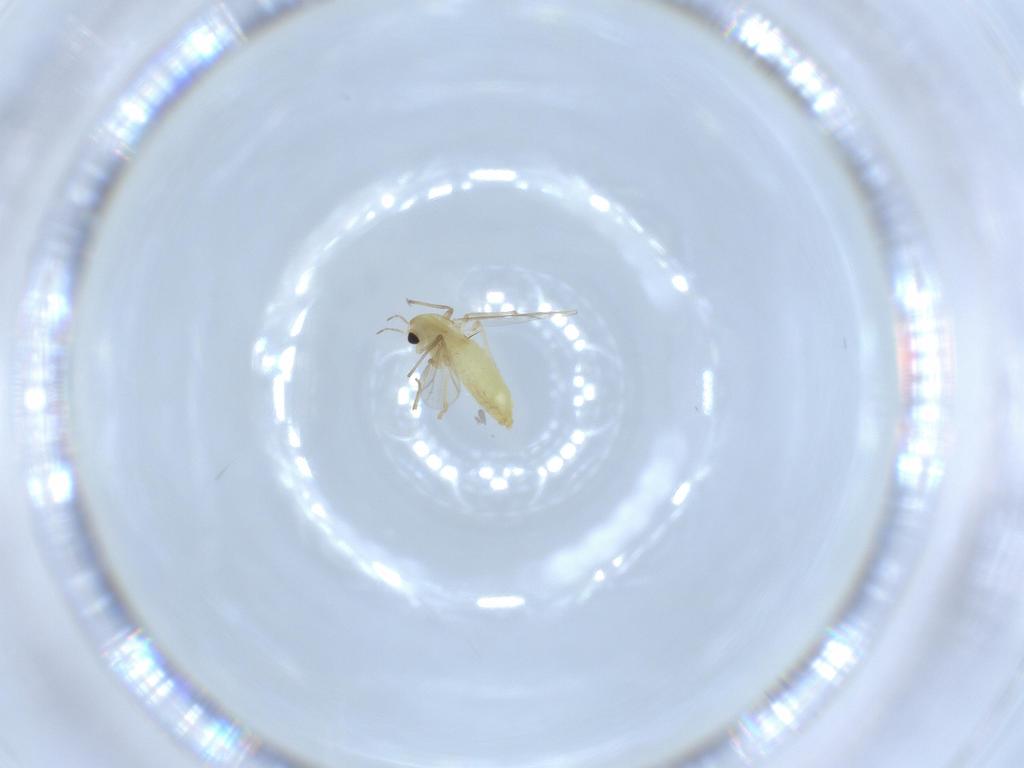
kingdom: Animalia
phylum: Arthropoda
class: Insecta
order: Diptera
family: Chironomidae
